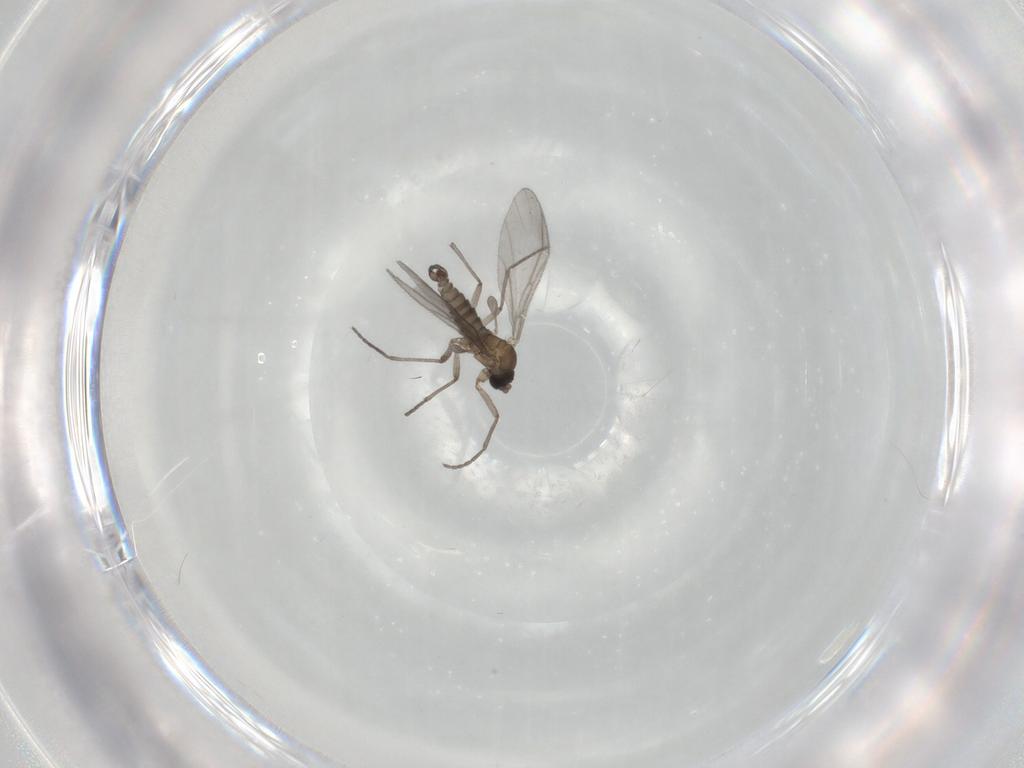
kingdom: Animalia
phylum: Arthropoda
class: Insecta
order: Diptera
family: Sciaridae
